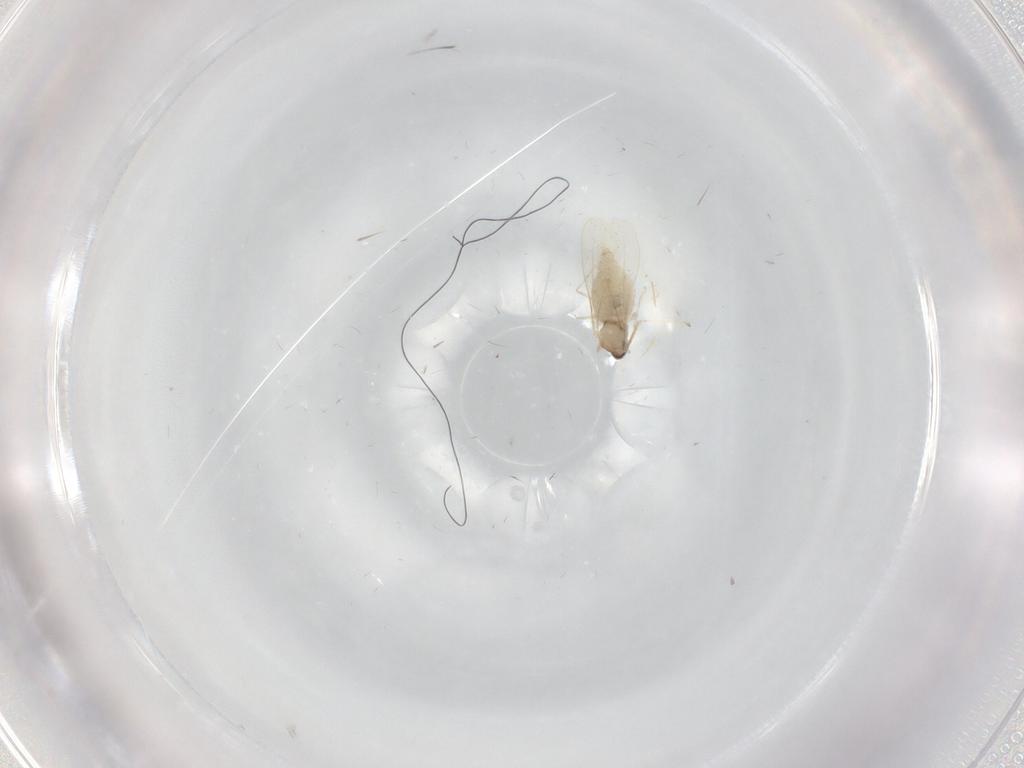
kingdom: Animalia
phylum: Arthropoda
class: Insecta
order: Diptera
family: Cecidomyiidae
